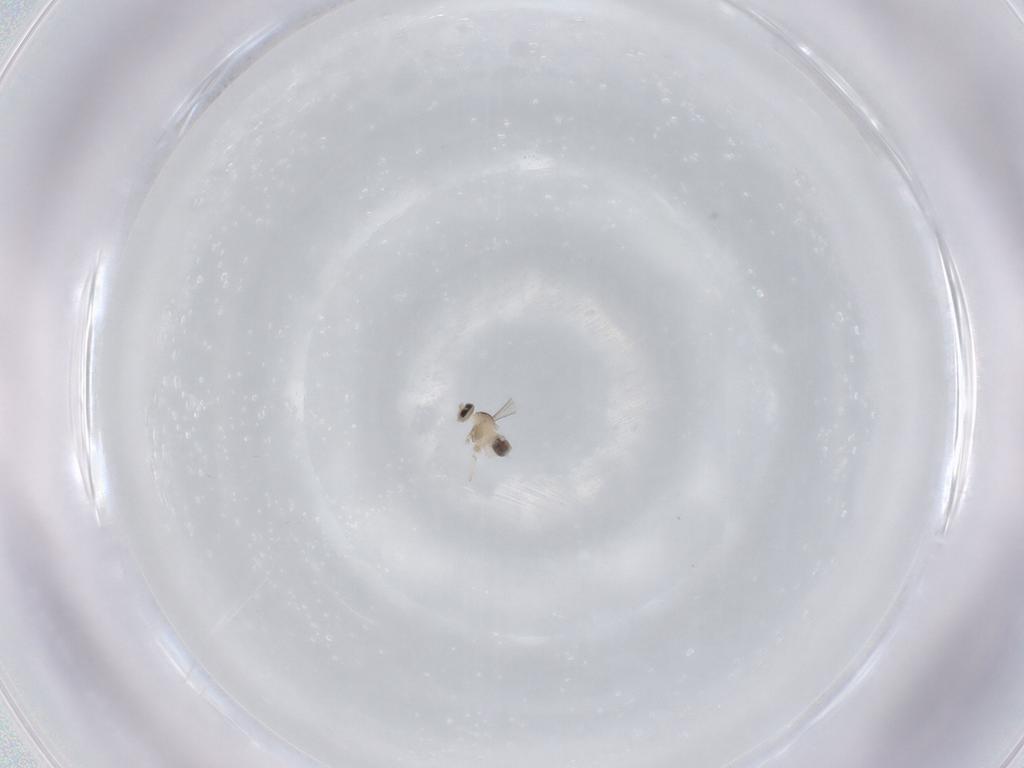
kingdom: Animalia
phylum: Arthropoda
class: Insecta
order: Diptera
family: Cecidomyiidae
